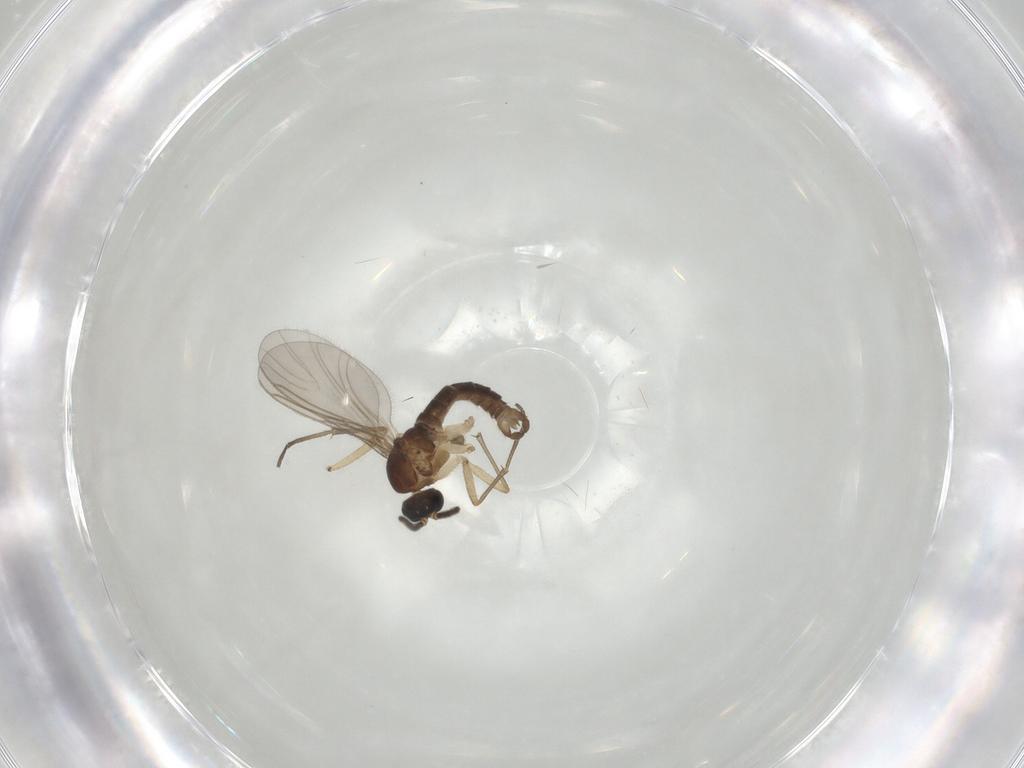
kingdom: Animalia
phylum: Arthropoda
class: Insecta
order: Diptera
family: Sciaridae
